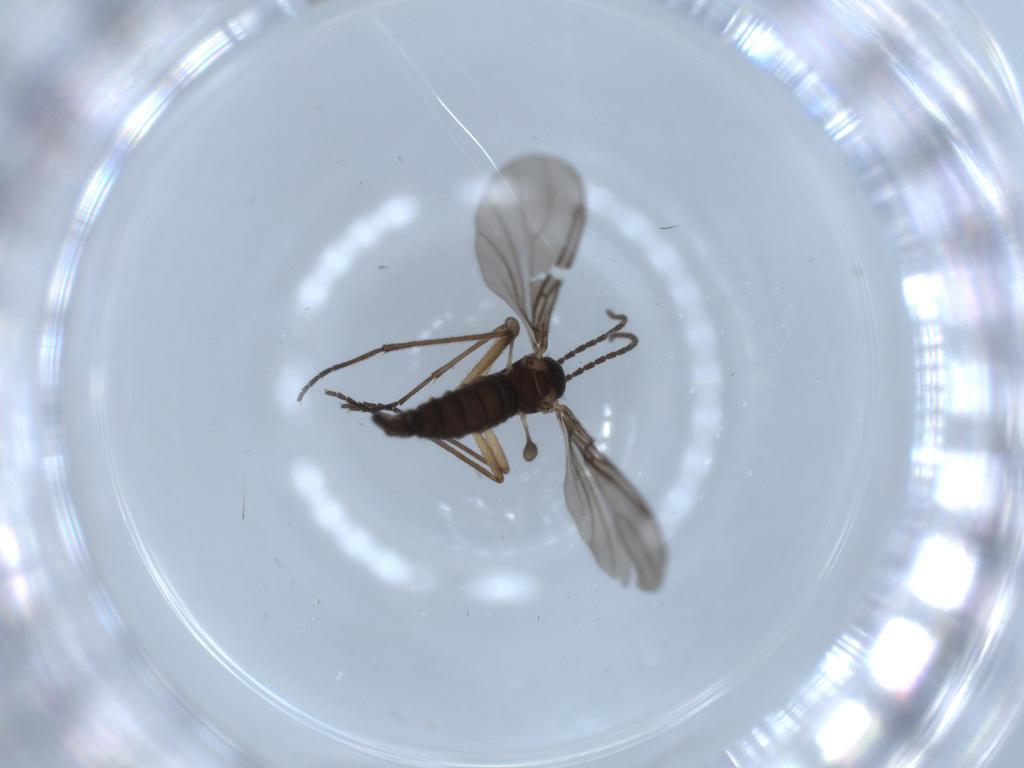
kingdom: Animalia
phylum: Arthropoda
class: Insecta
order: Diptera
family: Sciaridae
